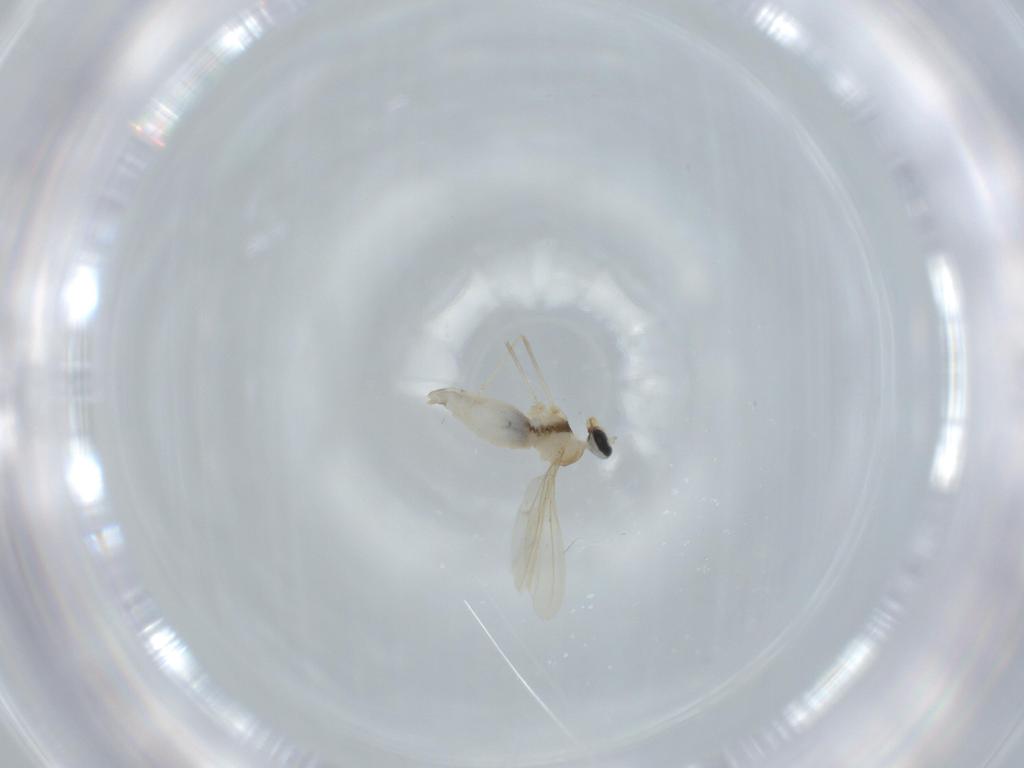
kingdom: Animalia
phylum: Arthropoda
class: Insecta
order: Diptera
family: Cecidomyiidae
